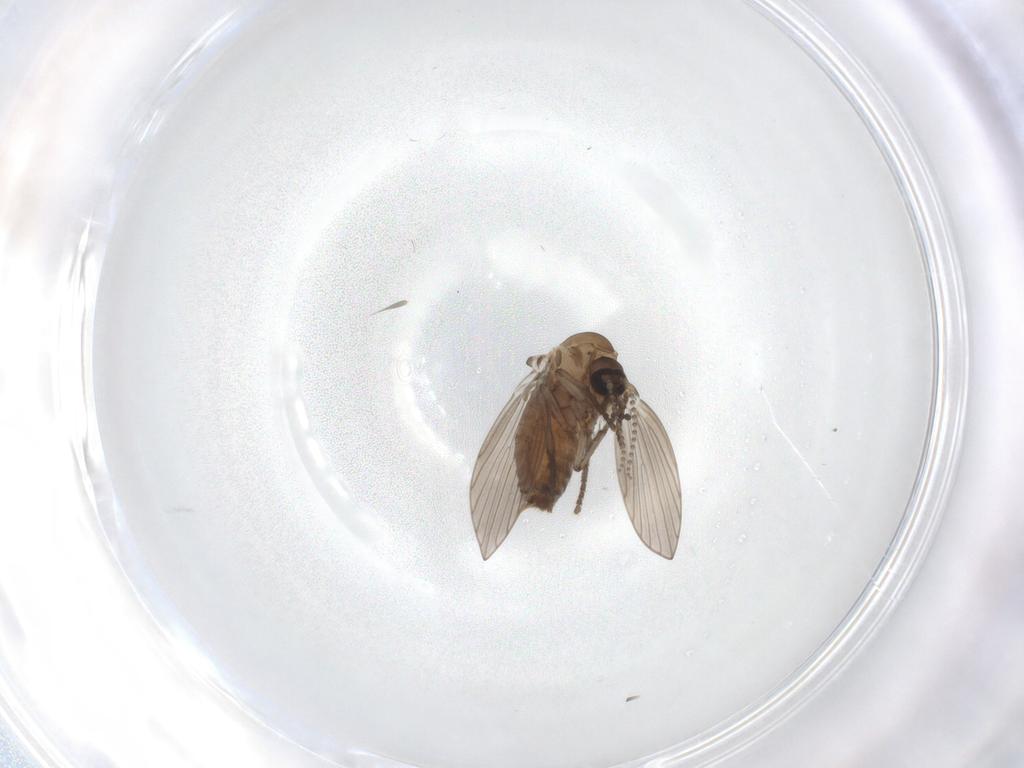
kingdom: Animalia
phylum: Arthropoda
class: Insecta
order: Diptera
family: Psychodidae
